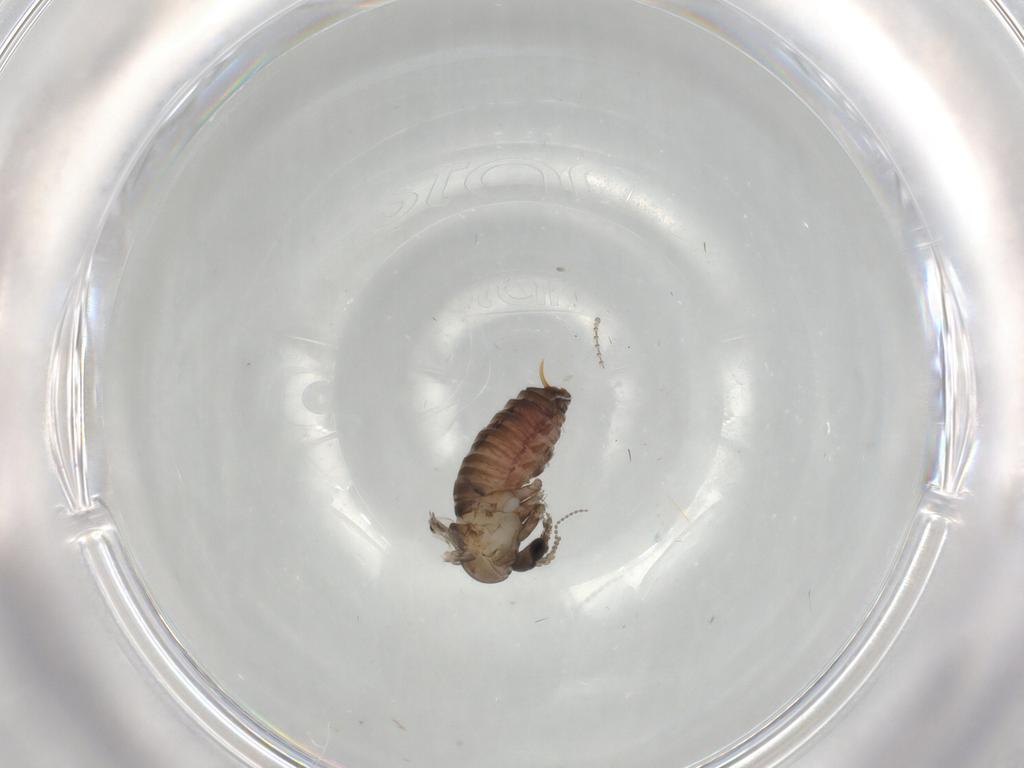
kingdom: Animalia
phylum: Arthropoda
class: Insecta
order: Diptera
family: Psychodidae
